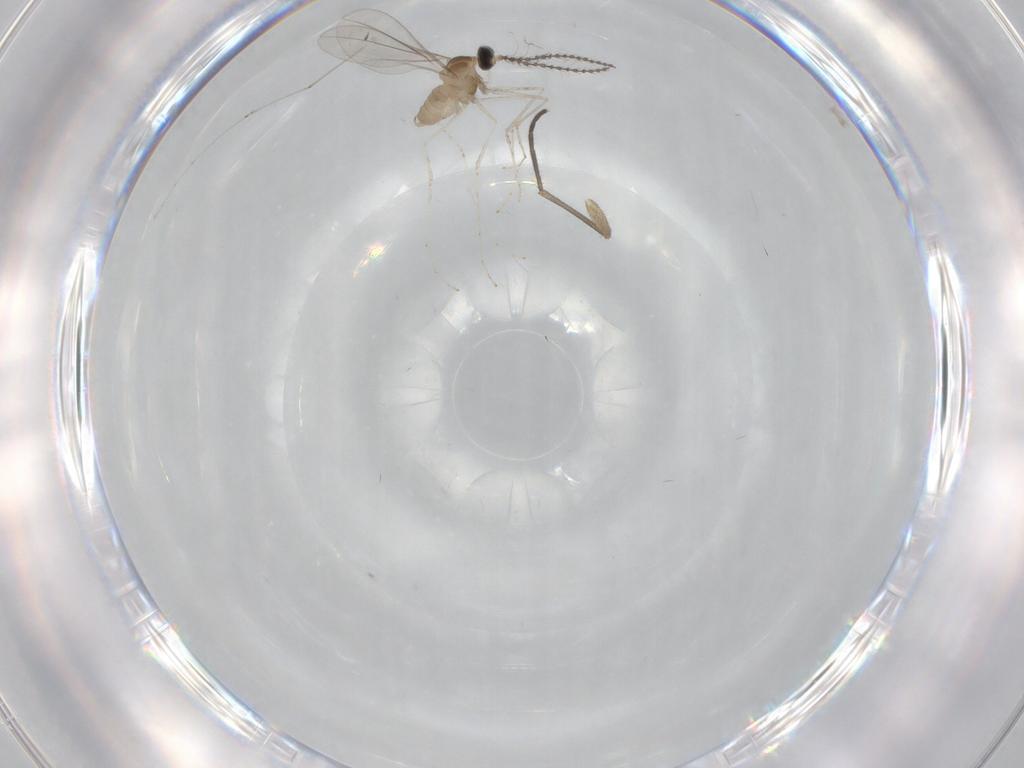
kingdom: Animalia
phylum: Arthropoda
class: Insecta
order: Diptera
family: Cecidomyiidae
